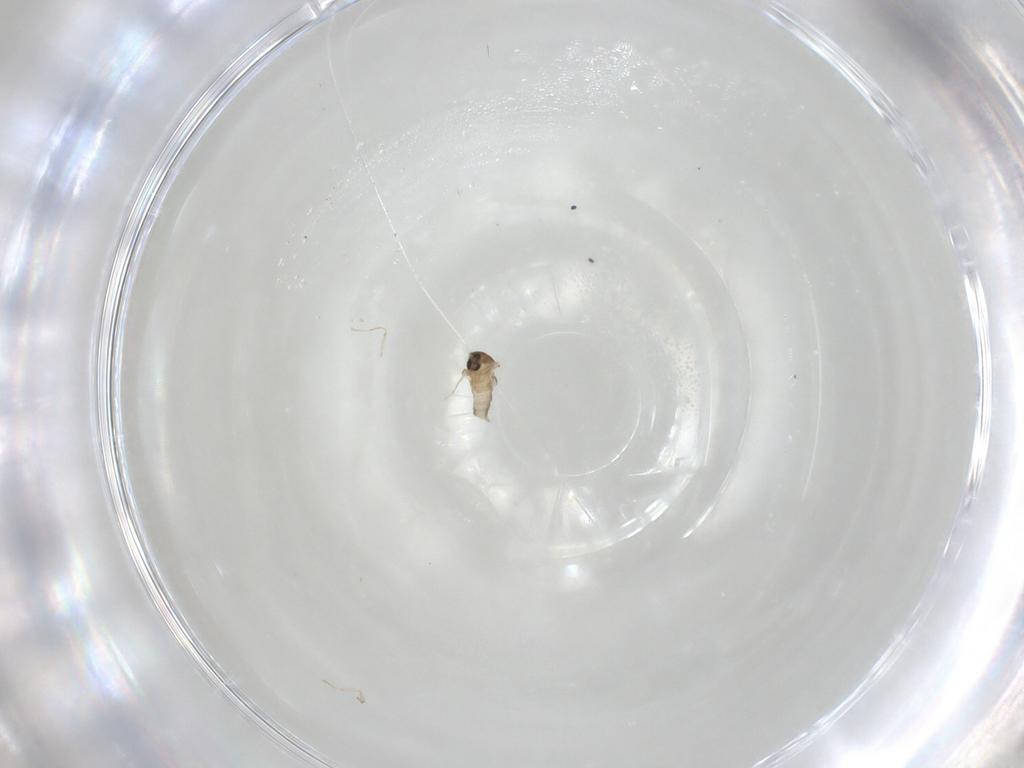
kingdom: Animalia
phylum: Arthropoda
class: Insecta
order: Diptera
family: Cecidomyiidae
